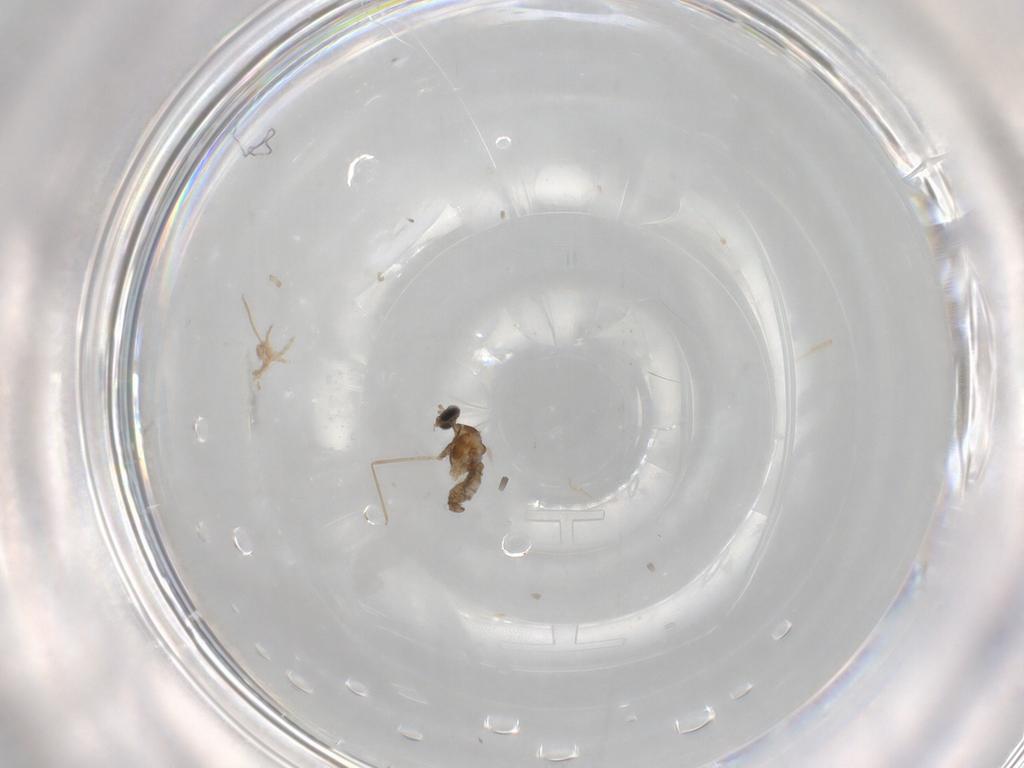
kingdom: Animalia
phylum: Arthropoda
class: Insecta
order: Diptera
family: Cecidomyiidae
